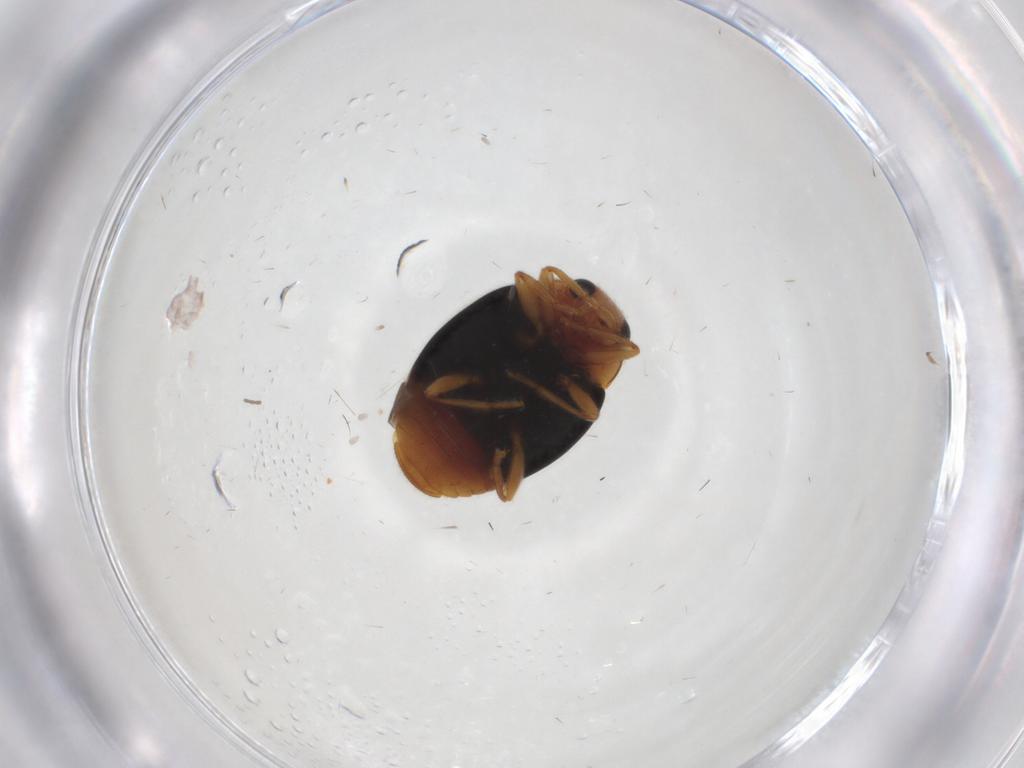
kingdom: Animalia
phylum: Arthropoda
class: Insecta
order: Coleoptera
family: Coccinellidae
